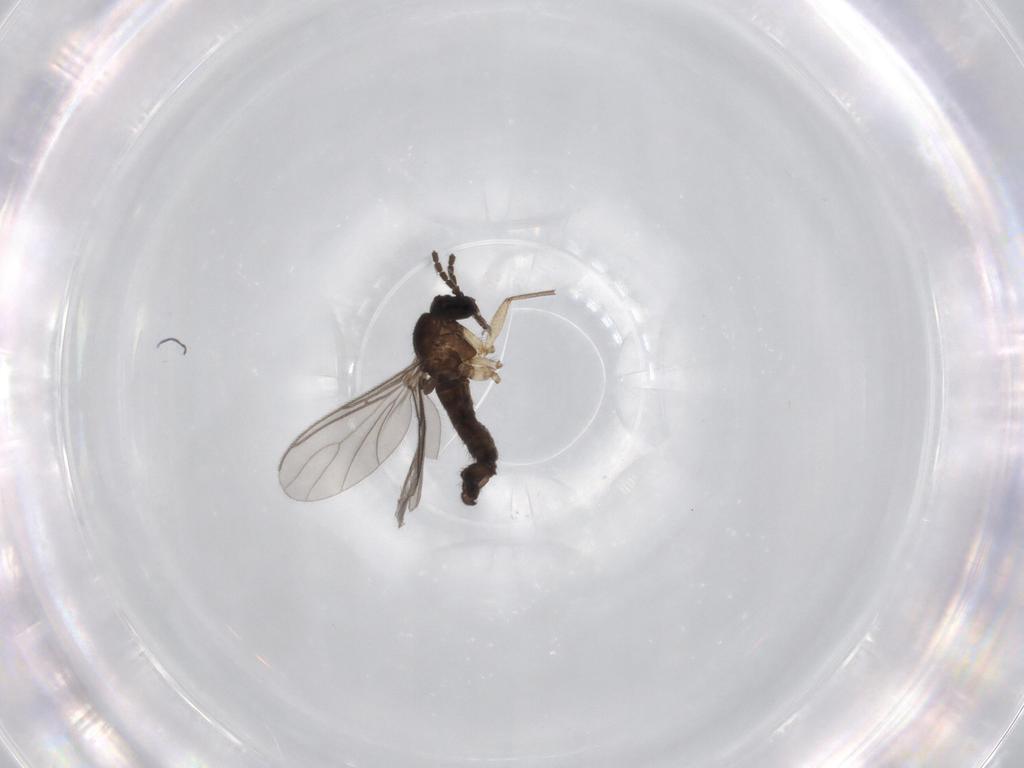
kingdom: Animalia
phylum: Arthropoda
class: Insecta
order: Diptera
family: Sciaridae
